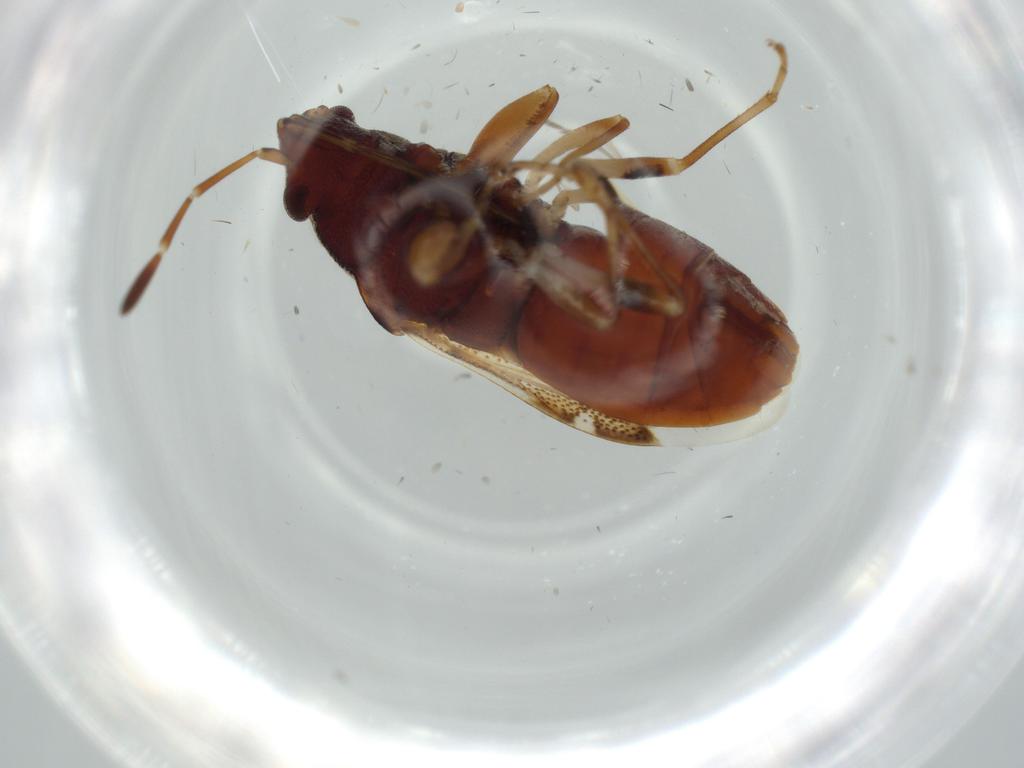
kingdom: Animalia
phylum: Arthropoda
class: Insecta
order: Hemiptera
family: Rhyparochromidae
